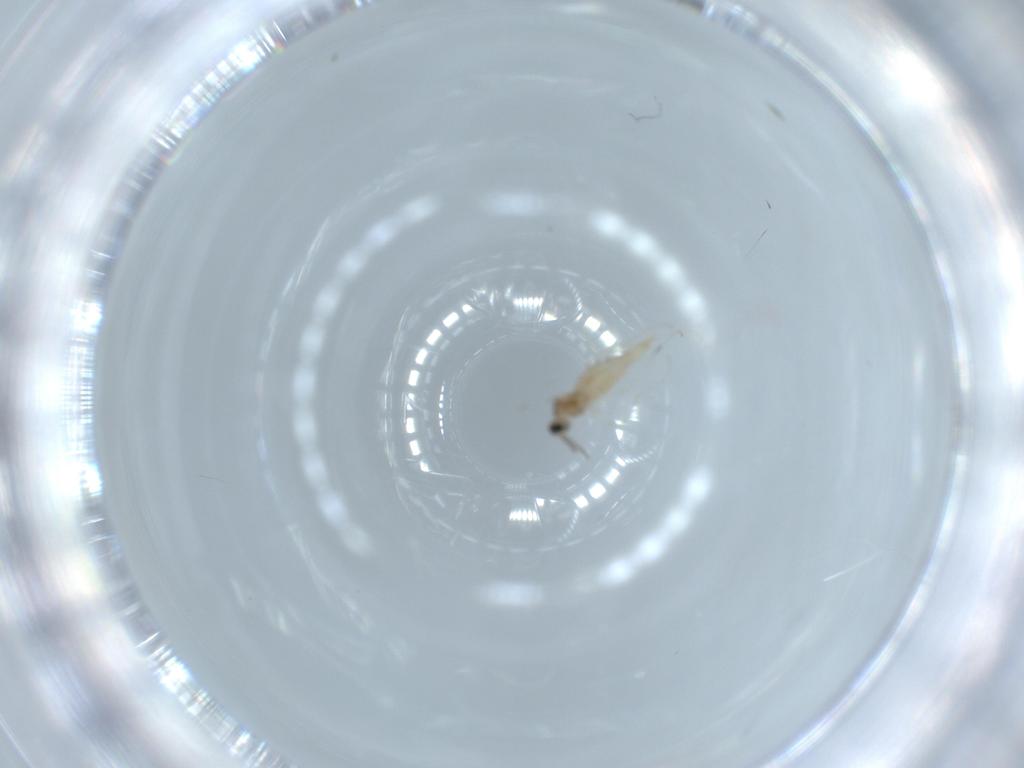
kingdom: Animalia
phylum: Arthropoda
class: Insecta
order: Diptera
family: Cecidomyiidae
